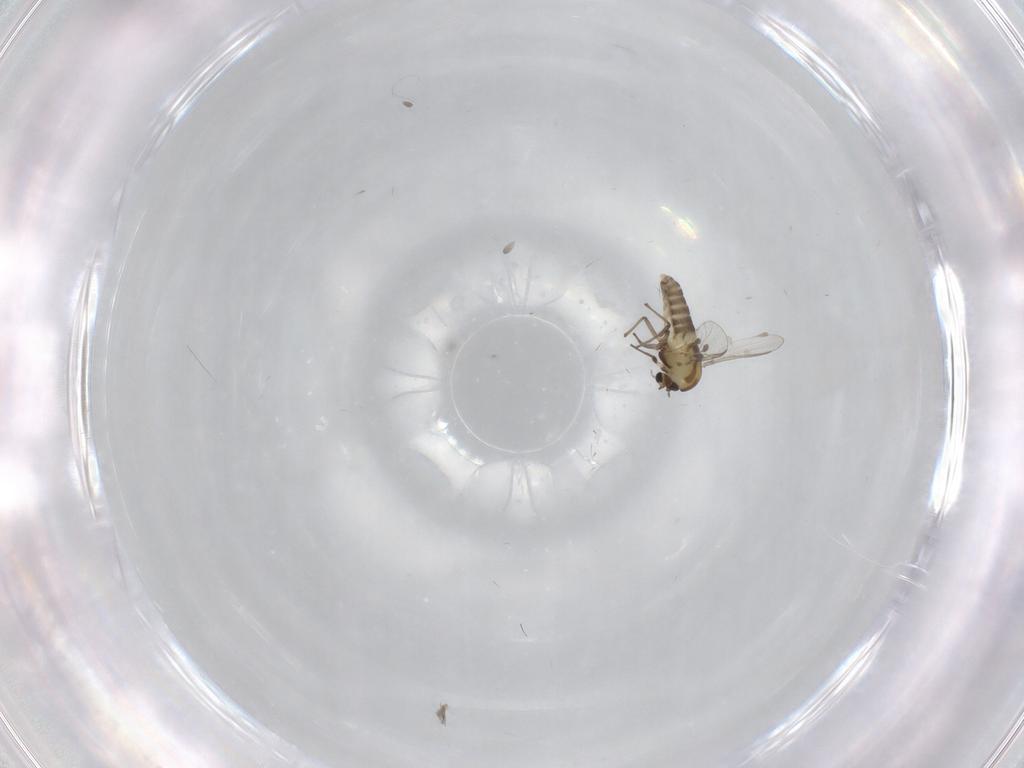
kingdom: Animalia
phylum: Arthropoda
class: Insecta
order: Diptera
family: Chironomidae
